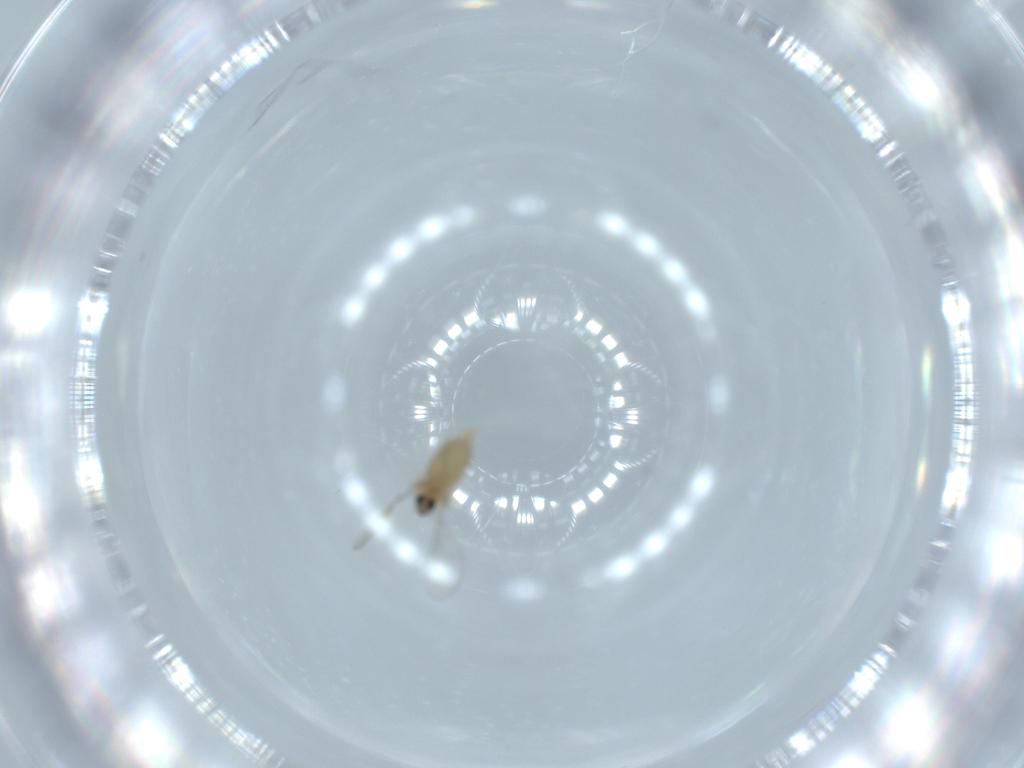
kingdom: Animalia
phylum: Arthropoda
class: Insecta
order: Diptera
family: Cecidomyiidae
